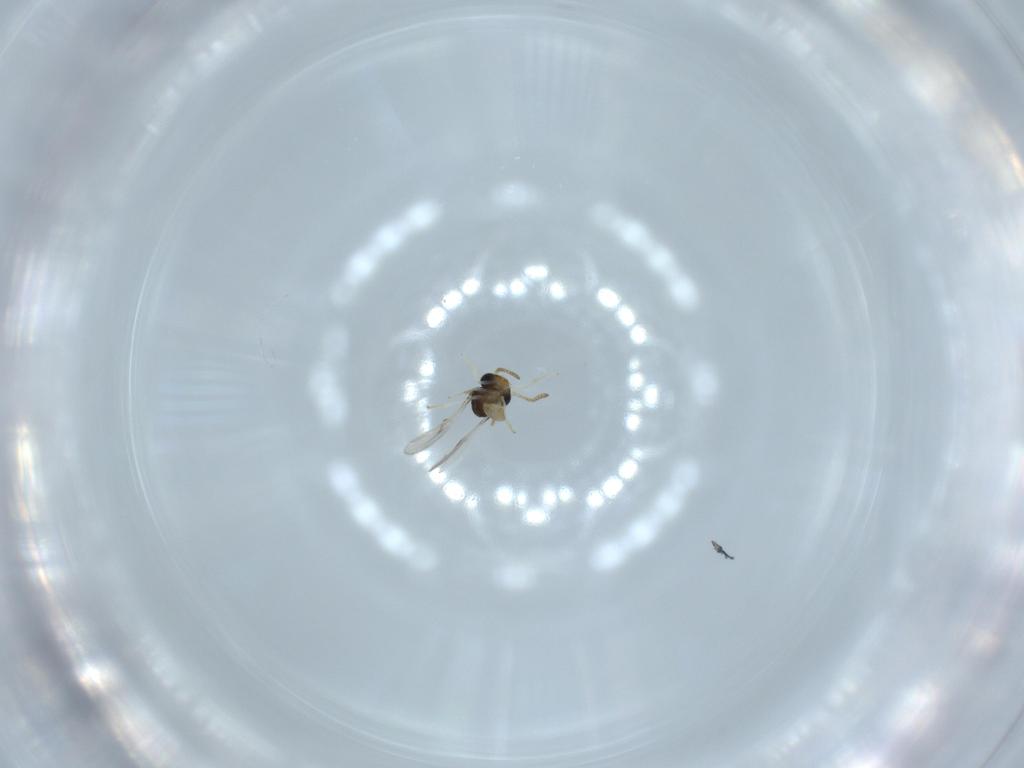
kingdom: Animalia
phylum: Arthropoda
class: Insecta
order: Hymenoptera
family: Scelionidae
